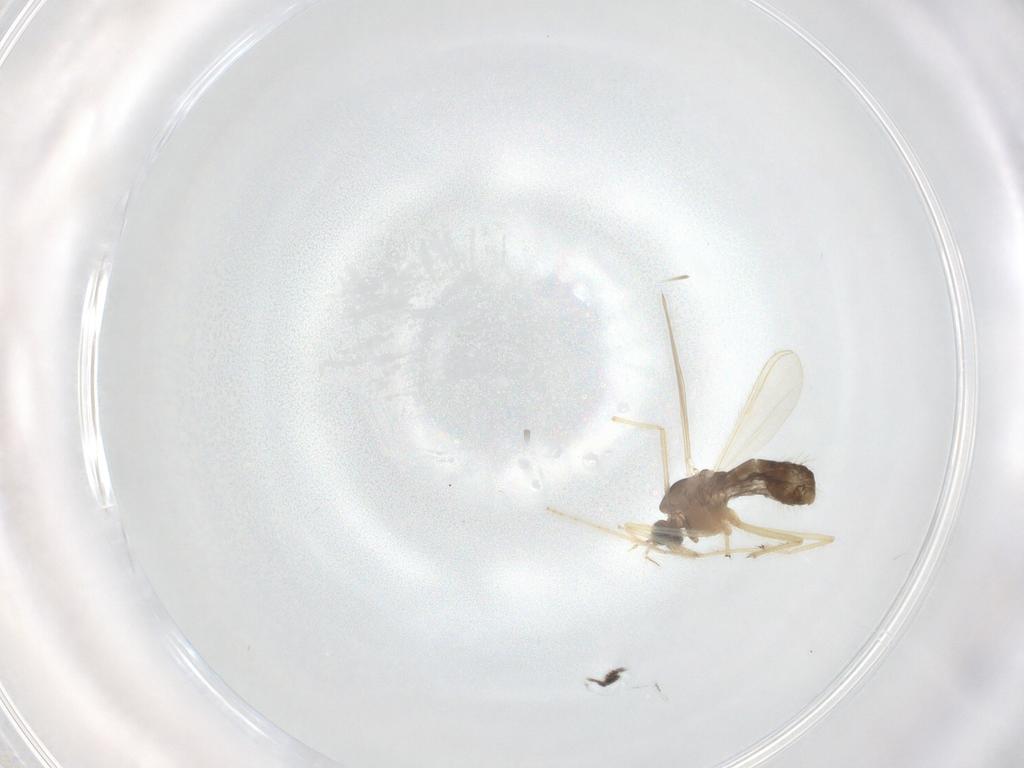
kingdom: Animalia
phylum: Arthropoda
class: Insecta
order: Diptera
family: Chironomidae
